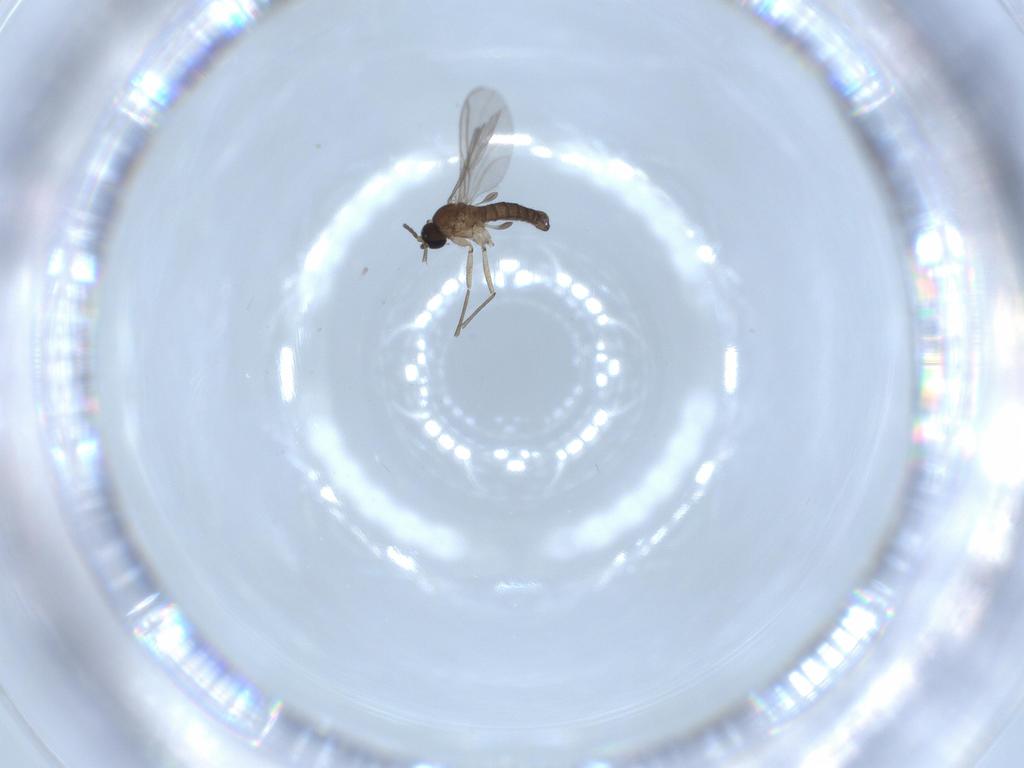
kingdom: Animalia
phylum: Arthropoda
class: Insecta
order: Diptera
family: Sciaridae
